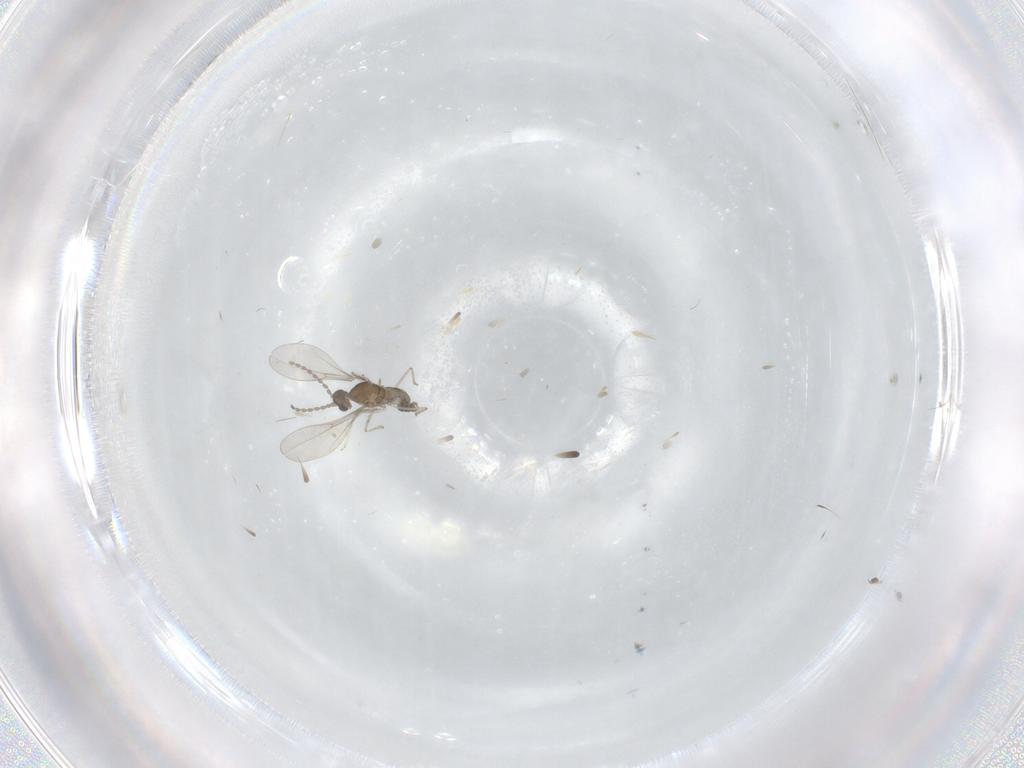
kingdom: Animalia
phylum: Arthropoda
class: Insecta
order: Diptera
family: Cecidomyiidae
